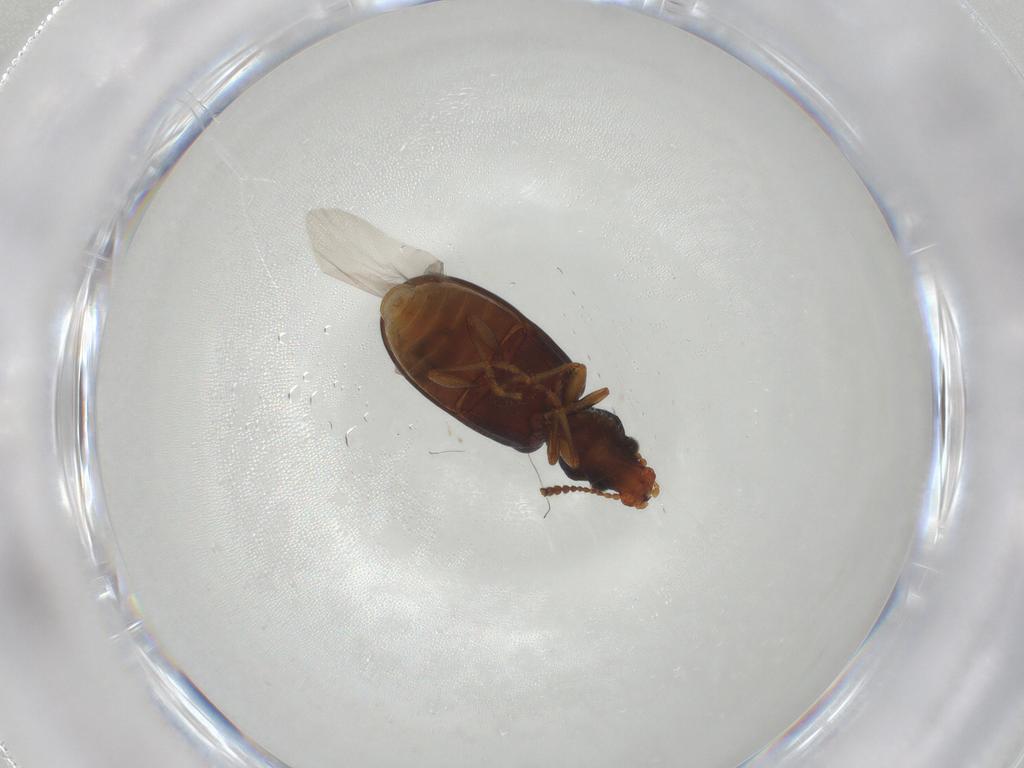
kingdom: Animalia
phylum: Arthropoda
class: Insecta
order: Coleoptera
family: Salpingidae
